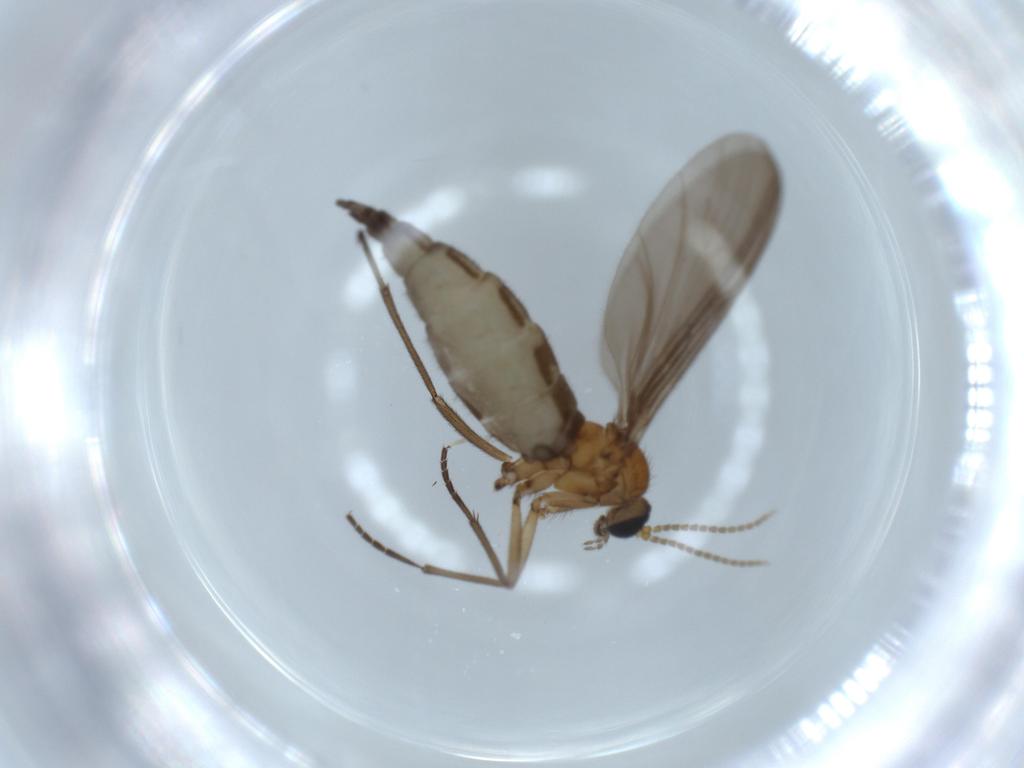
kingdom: Animalia
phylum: Arthropoda
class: Insecta
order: Diptera
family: Sciaridae
